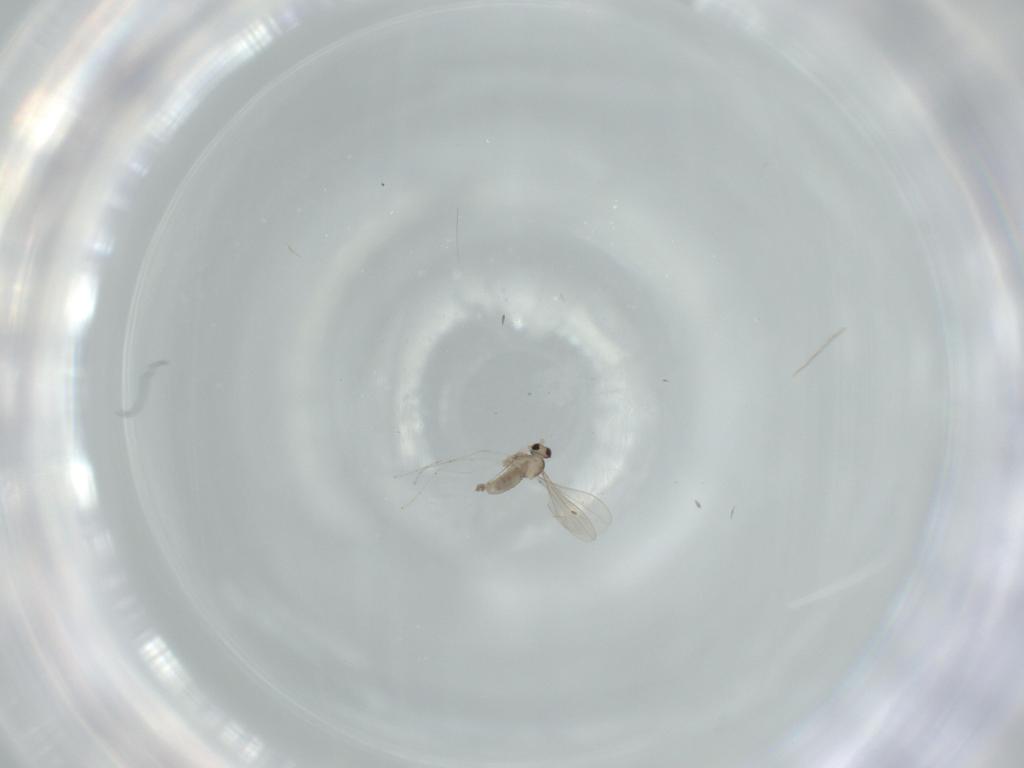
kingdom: Animalia
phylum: Arthropoda
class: Insecta
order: Diptera
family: Cecidomyiidae
